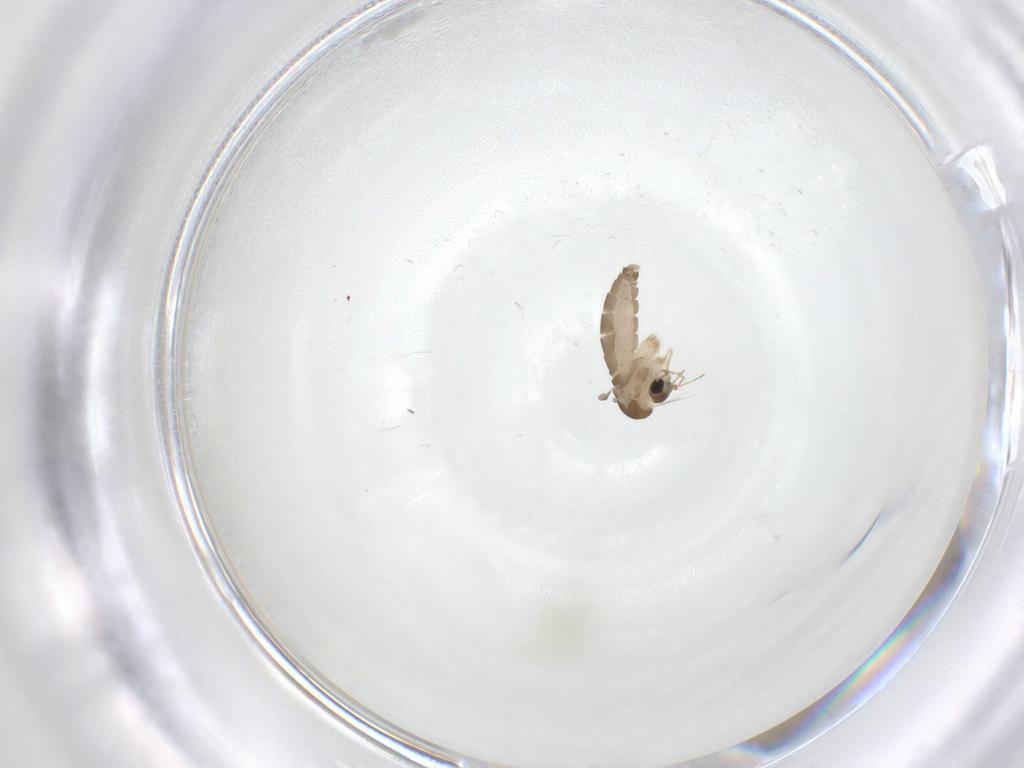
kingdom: Animalia
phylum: Arthropoda
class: Insecta
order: Diptera
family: Psychodidae
